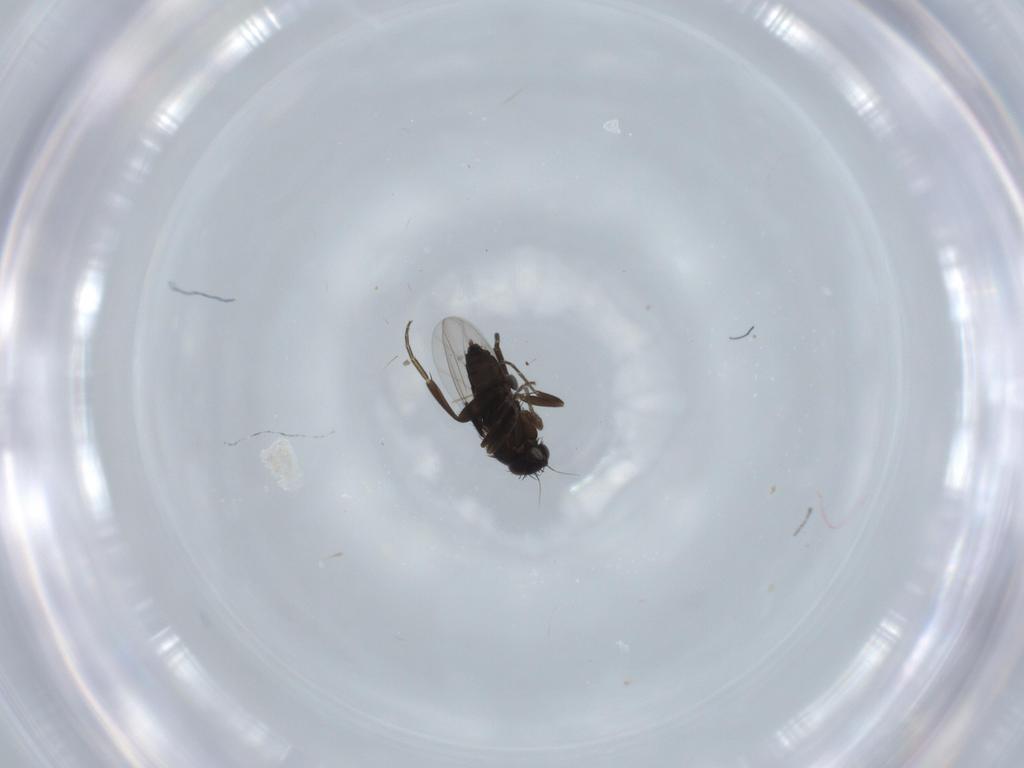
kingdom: Animalia
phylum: Arthropoda
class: Insecta
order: Diptera
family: Phoridae
